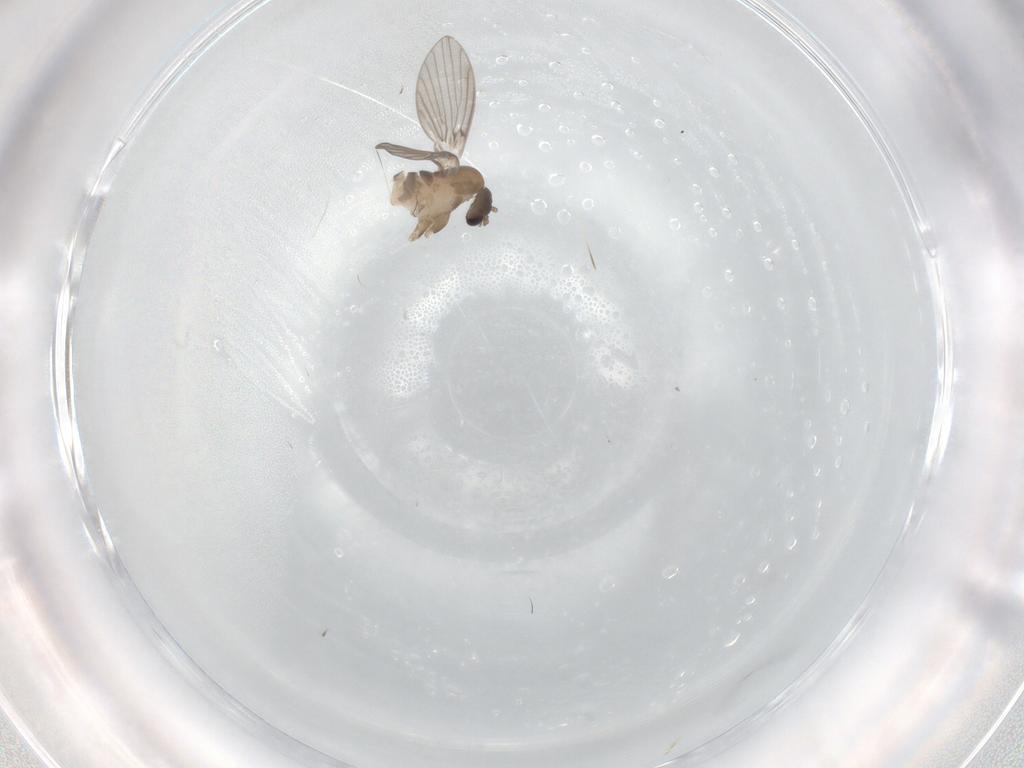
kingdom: Animalia
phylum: Arthropoda
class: Insecta
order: Diptera
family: Psychodidae
